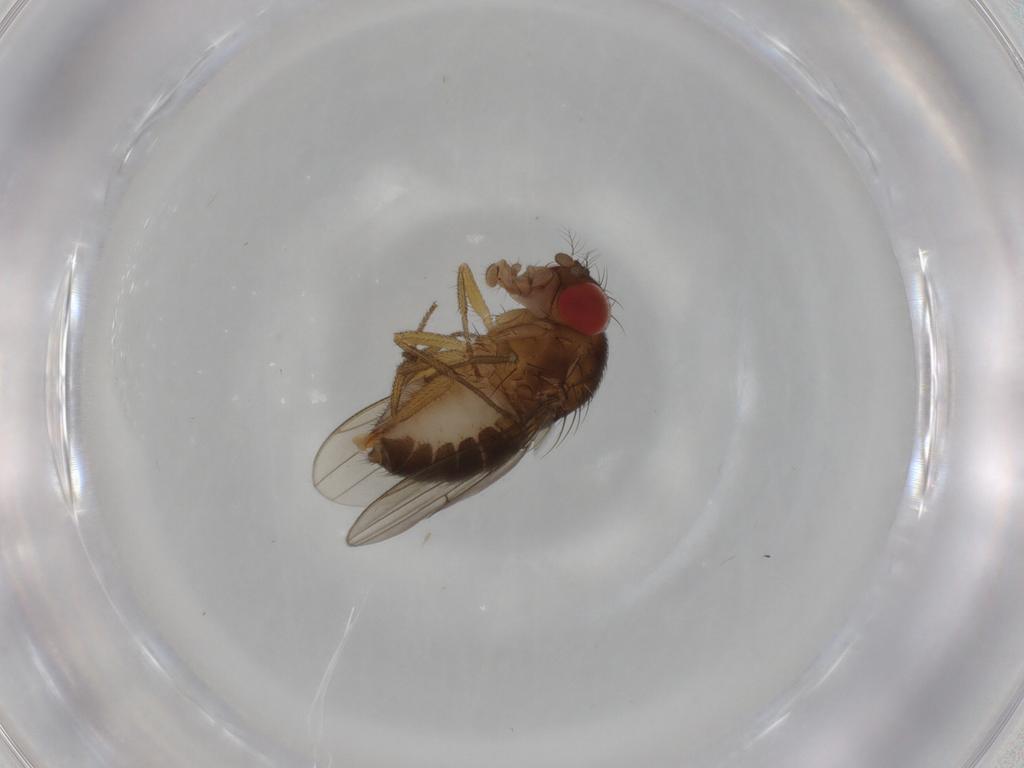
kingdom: Animalia
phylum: Arthropoda
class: Insecta
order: Diptera
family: Drosophilidae
